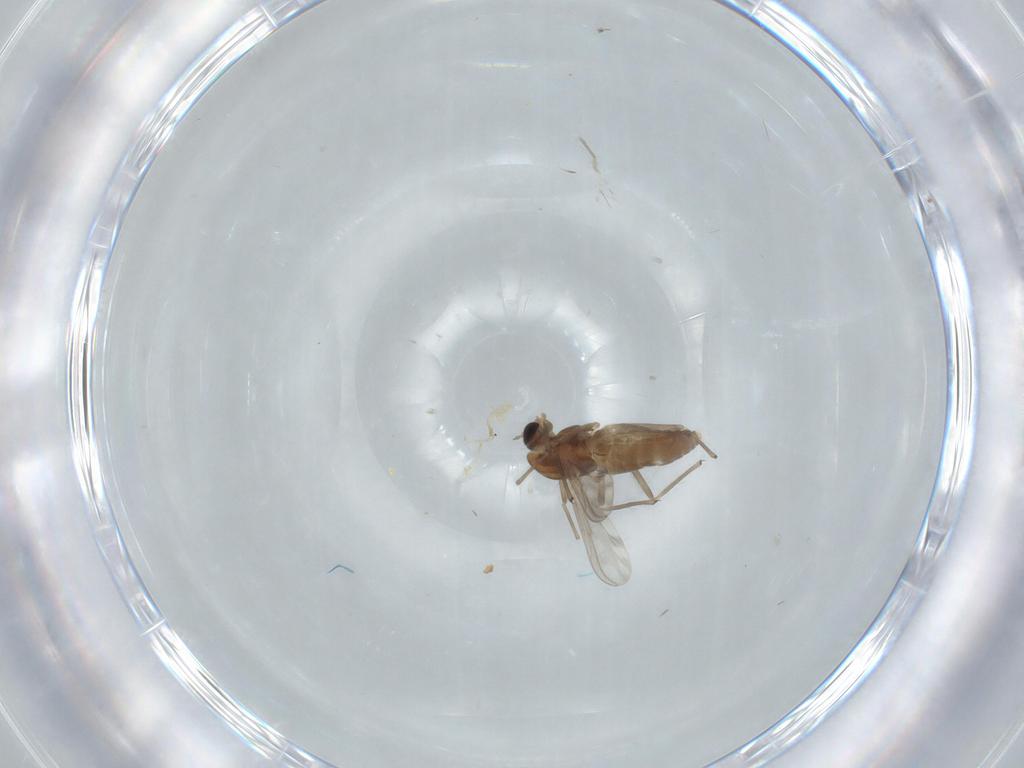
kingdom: Animalia
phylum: Arthropoda
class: Insecta
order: Diptera
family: Chironomidae
